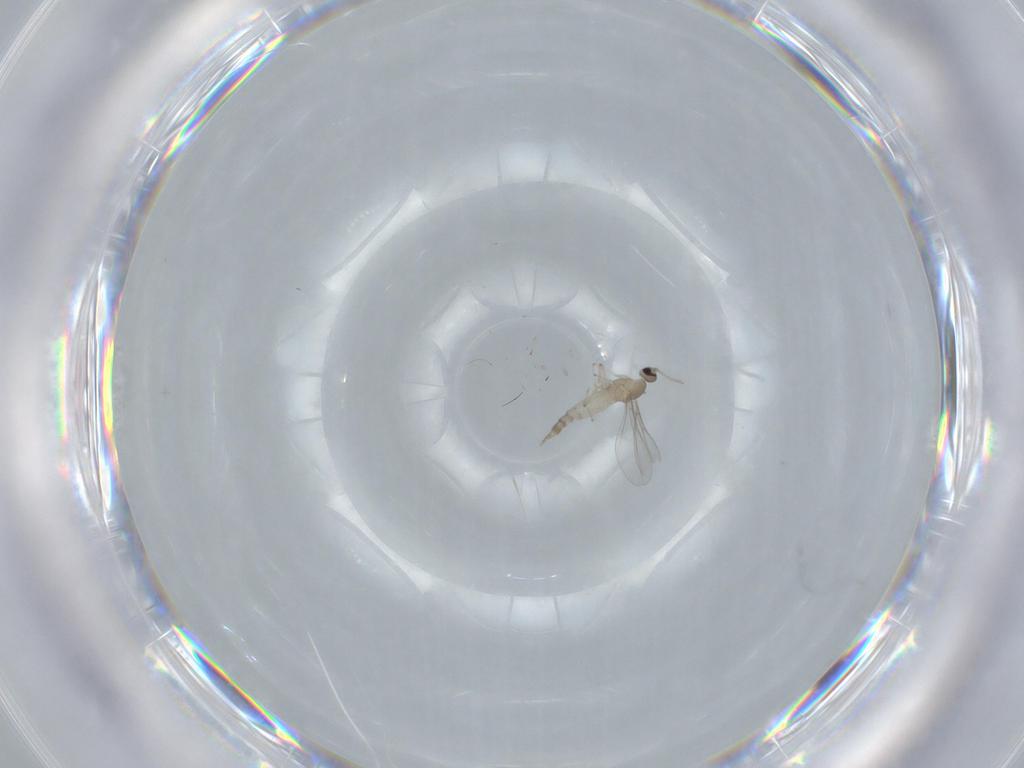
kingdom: Animalia
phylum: Arthropoda
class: Insecta
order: Diptera
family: Cecidomyiidae
